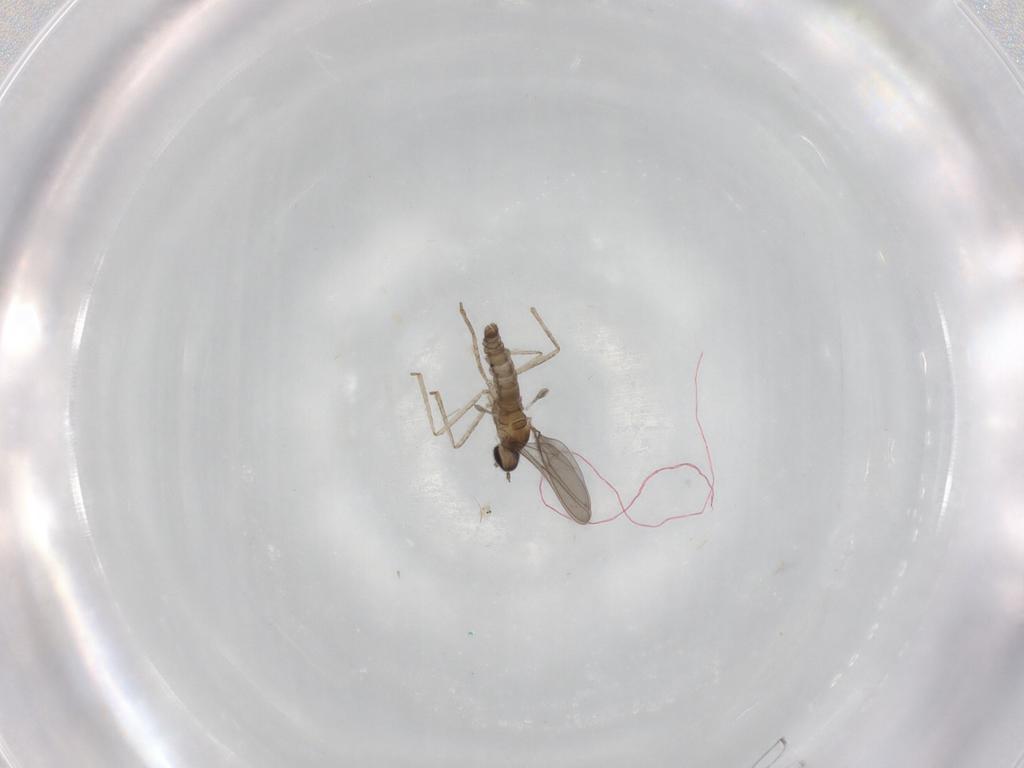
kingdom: Animalia
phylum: Arthropoda
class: Insecta
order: Diptera
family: Cecidomyiidae
